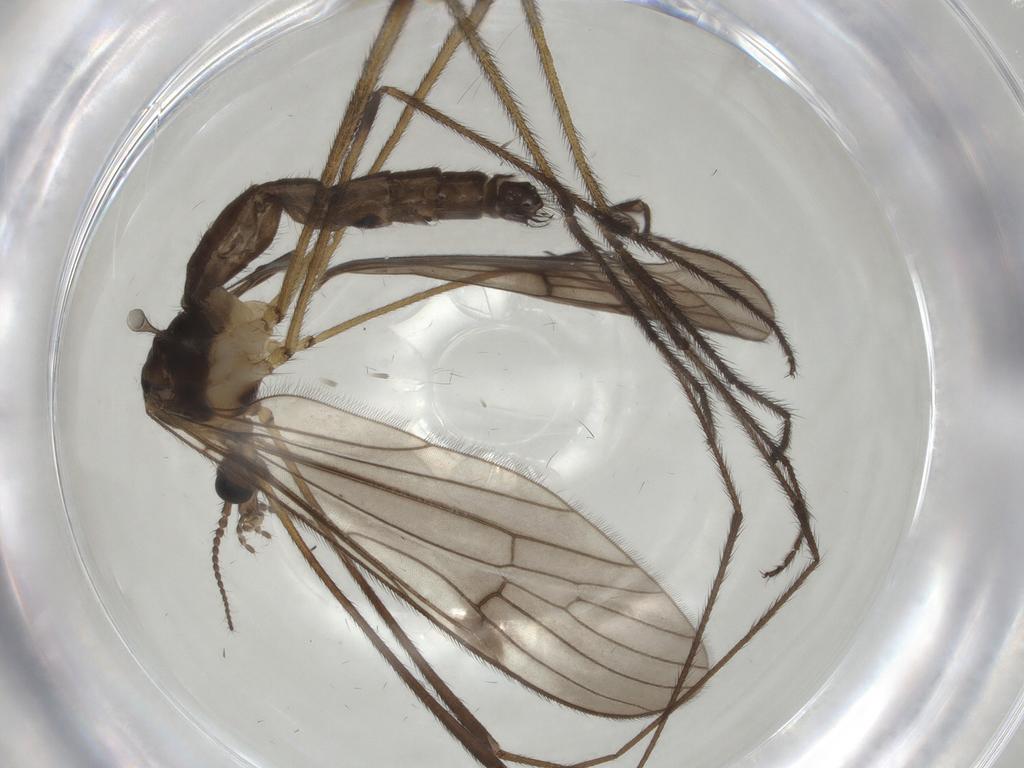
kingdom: Animalia
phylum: Arthropoda
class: Insecta
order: Diptera
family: Limoniidae
